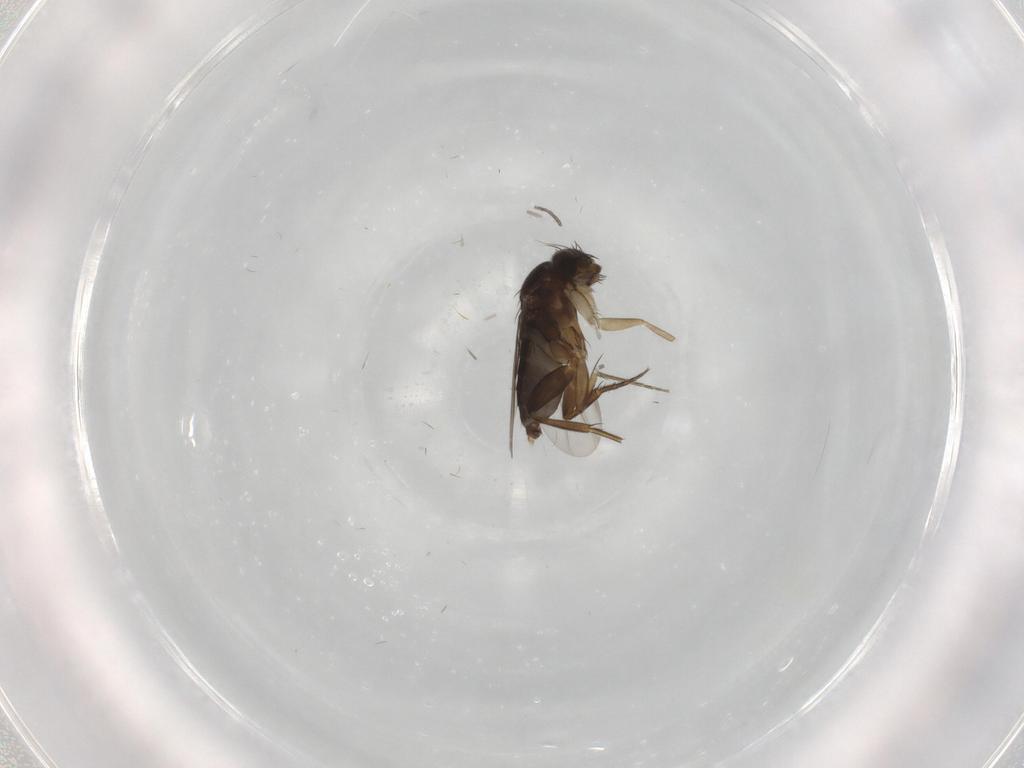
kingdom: Animalia
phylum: Arthropoda
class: Insecta
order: Diptera
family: Phoridae
